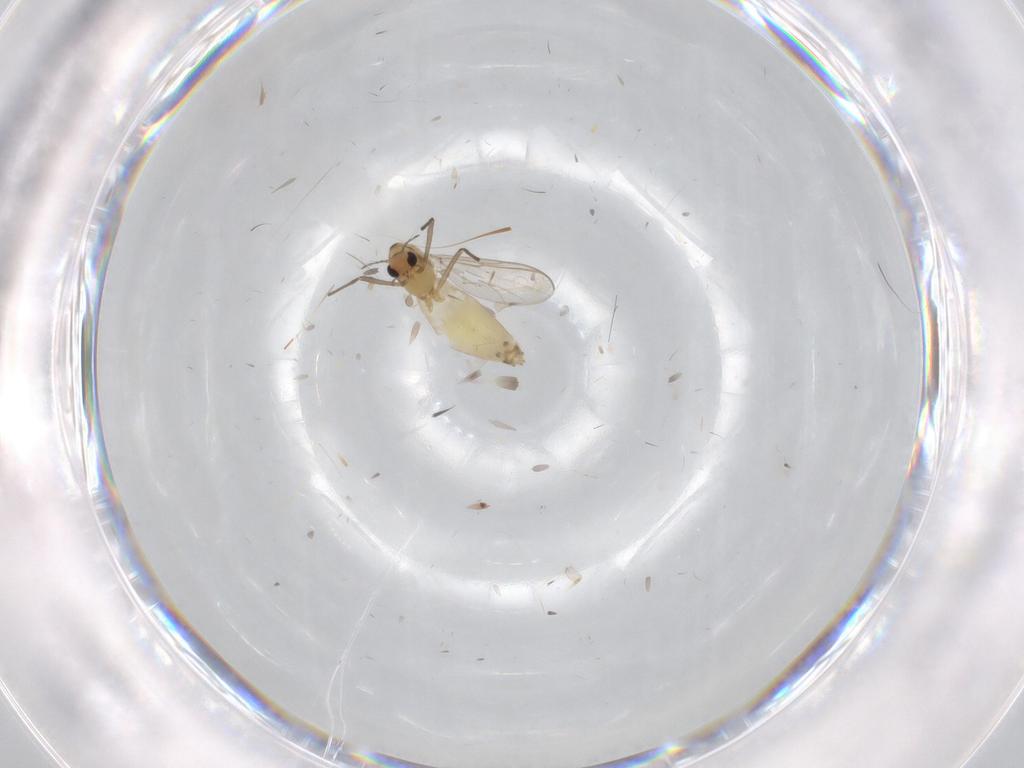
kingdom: Animalia
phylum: Arthropoda
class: Insecta
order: Diptera
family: Chironomidae
